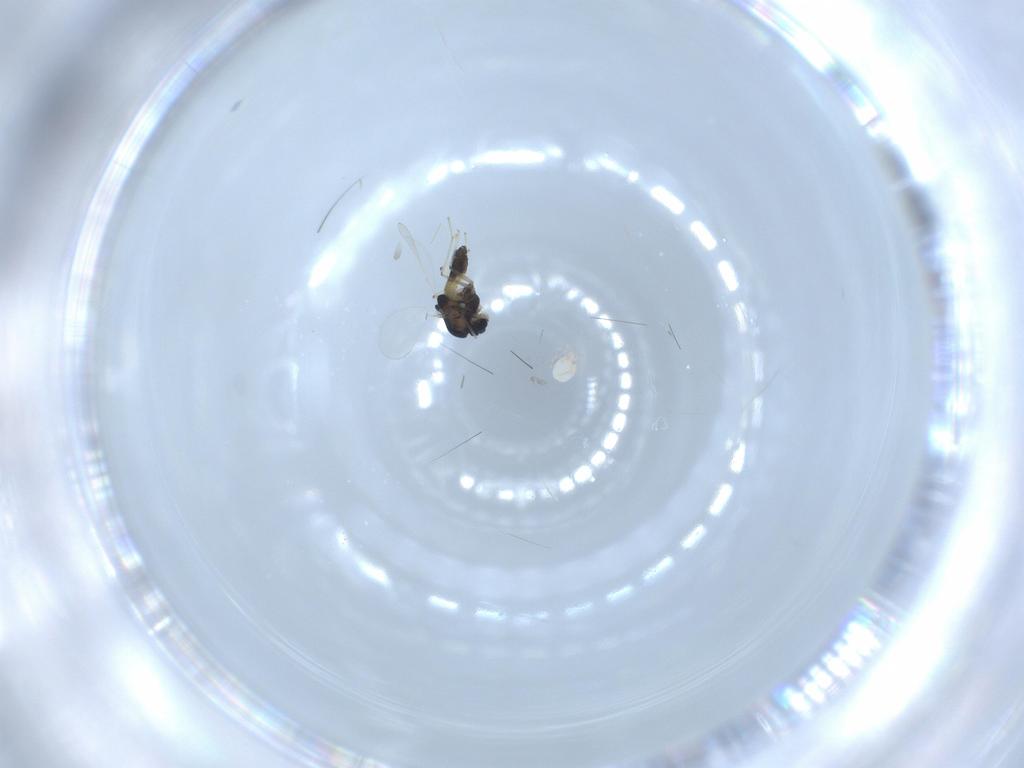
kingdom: Animalia
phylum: Arthropoda
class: Insecta
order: Diptera
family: Chironomidae
